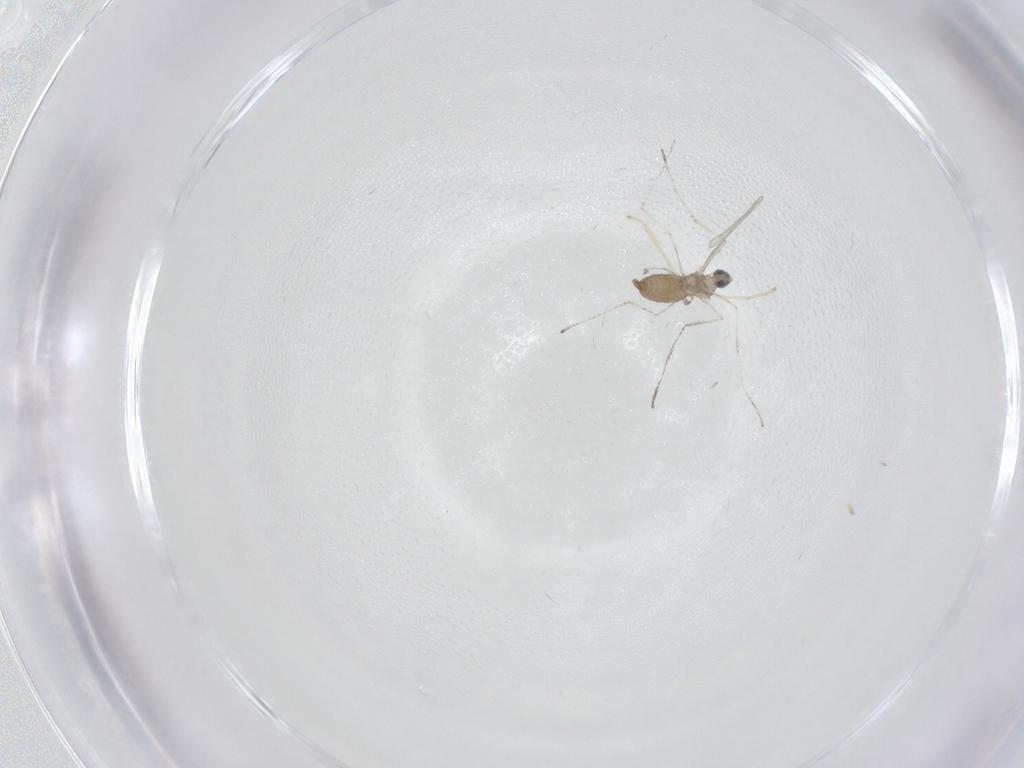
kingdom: Animalia
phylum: Arthropoda
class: Insecta
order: Diptera
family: Cecidomyiidae
